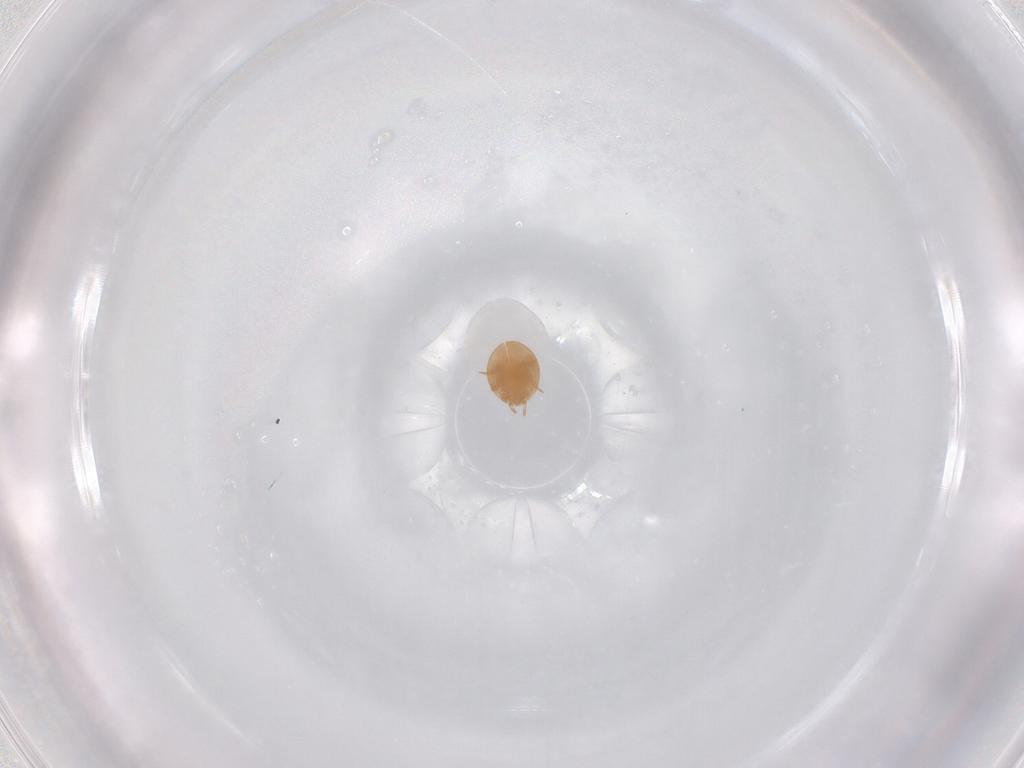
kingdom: Animalia
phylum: Arthropoda
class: Arachnida
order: Mesostigmata
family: Trematuridae
